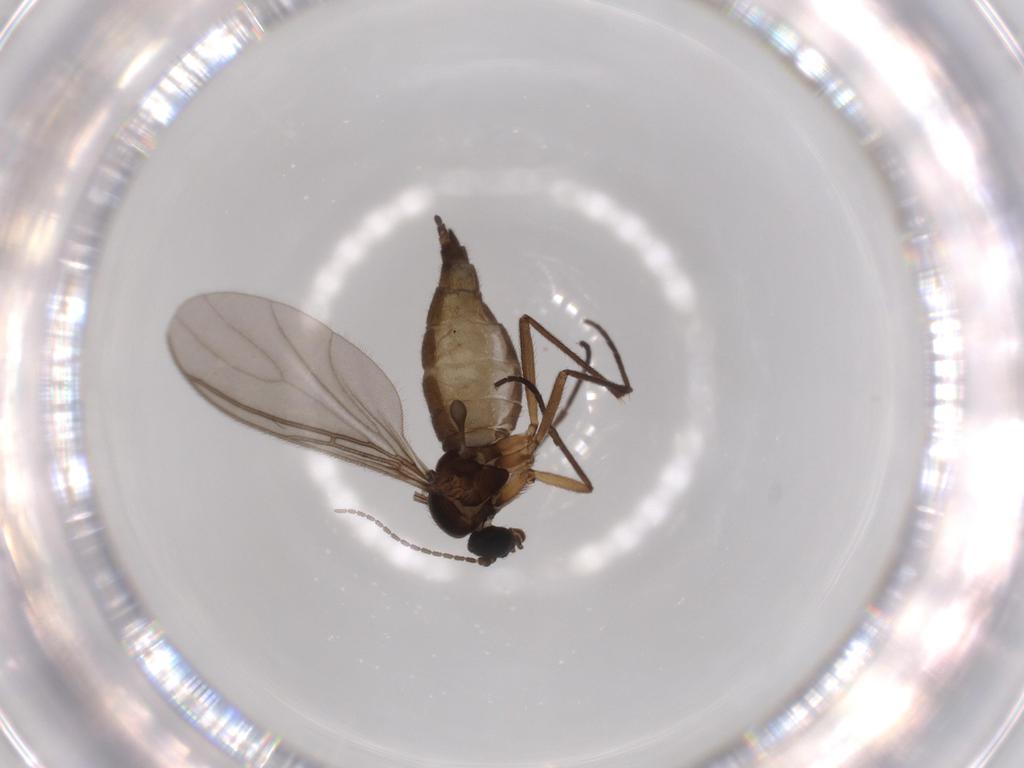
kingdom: Animalia
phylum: Arthropoda
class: Insecta
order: Diptera
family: Sciaridae
